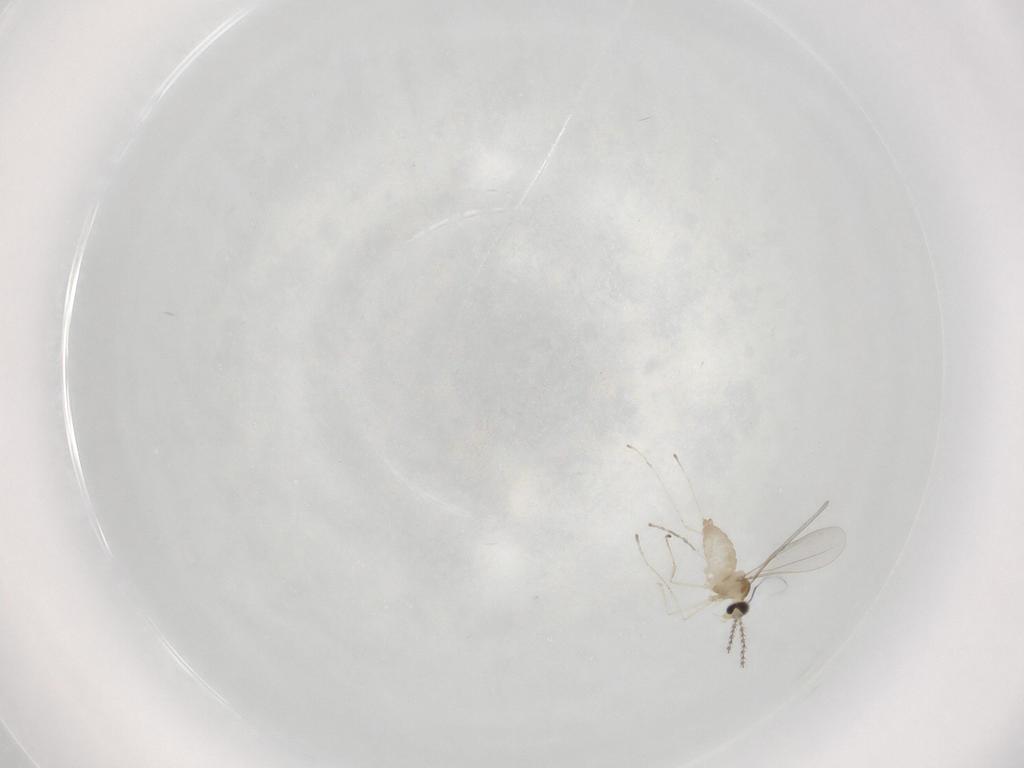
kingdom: Animalia
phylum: Arthropoda
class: Insecta
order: Diptera
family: Cecidomyiidae
